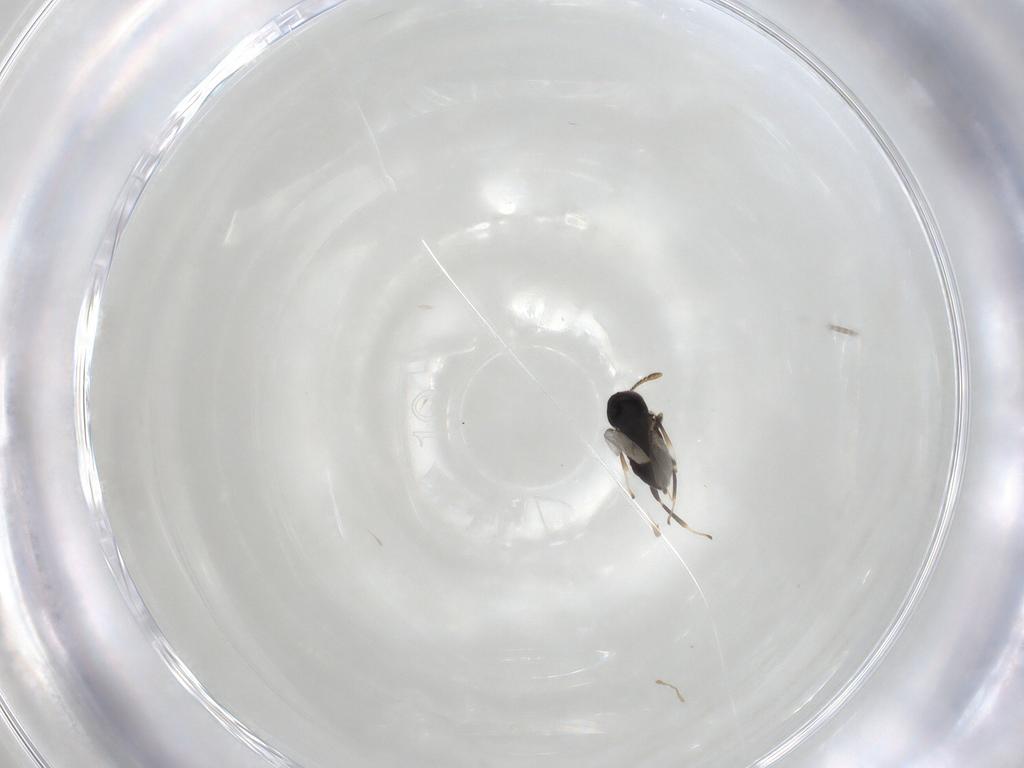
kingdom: Animalia
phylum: Arthropoda
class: Insecta
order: Hymenoptera
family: Encyrtidae
